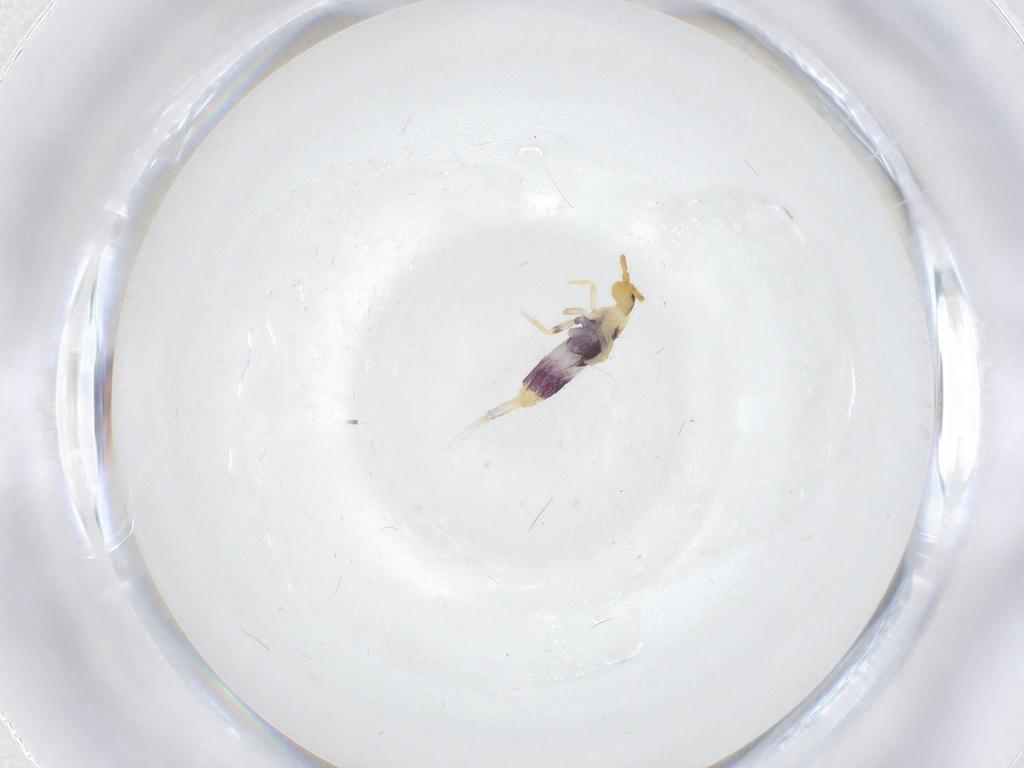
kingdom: Animalia
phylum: Arthropoda
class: Collembola
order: Entomobryomorpha
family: Entomobryidae
